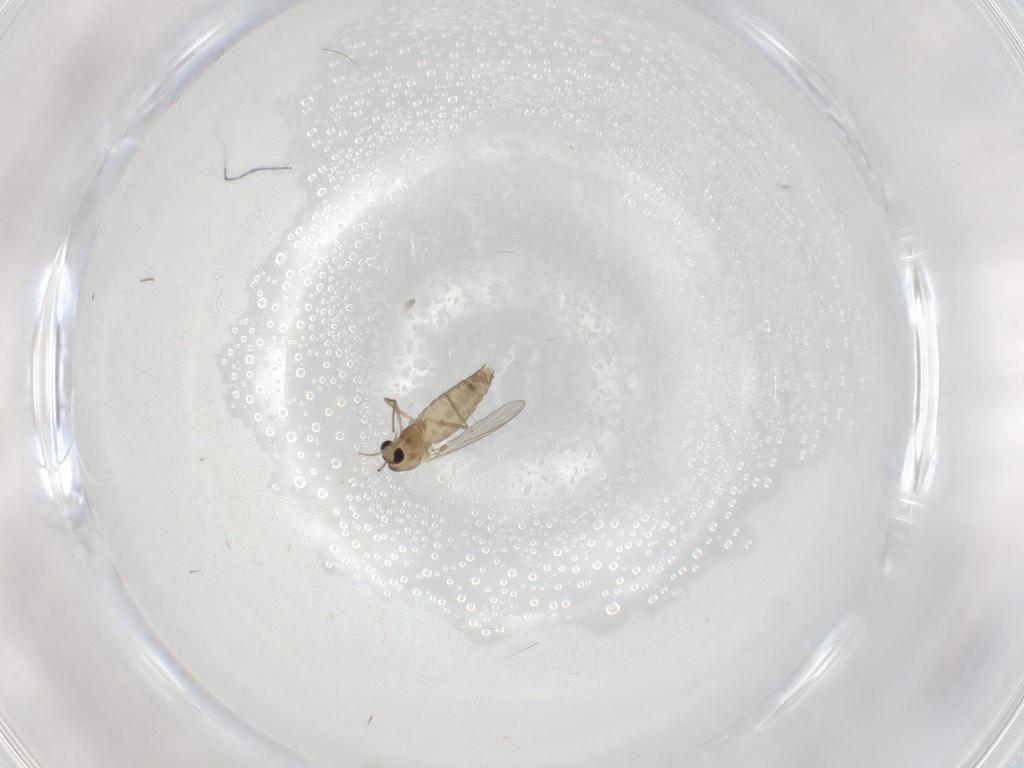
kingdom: Animalia
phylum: Arthropoda
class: Insecta
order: Diptera
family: Chironomidae
